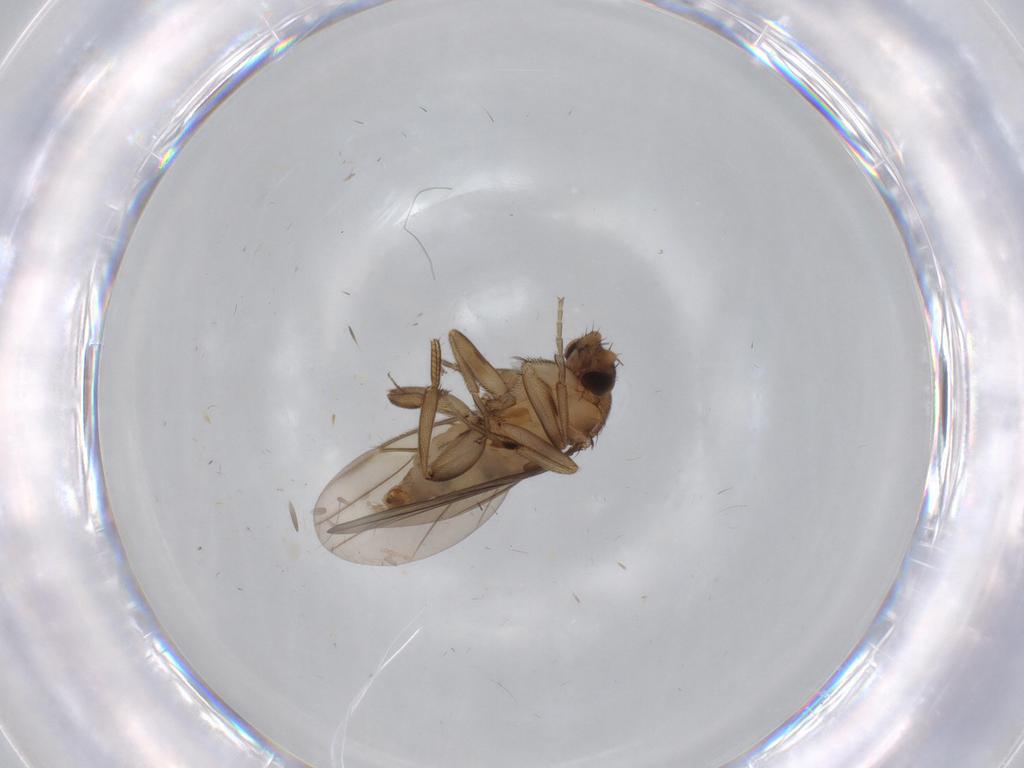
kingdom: Animalia
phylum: Arthropoda
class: Insecta
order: Diptera
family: Phoridae
